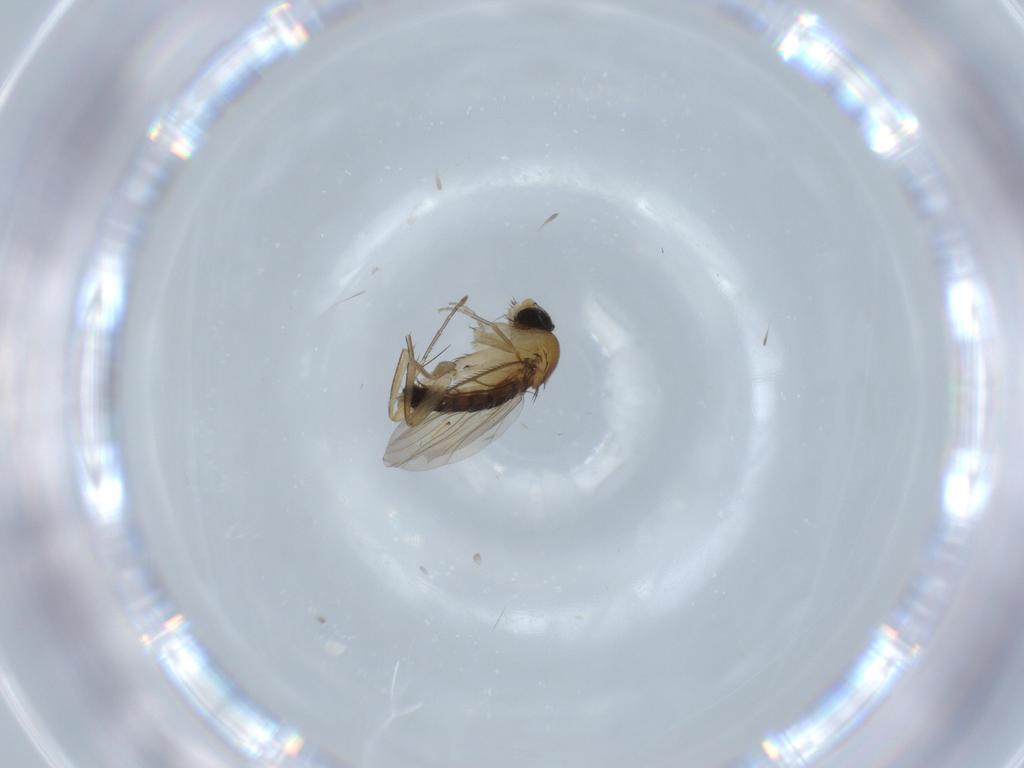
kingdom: Animalia
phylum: Arthropoda
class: Insecta
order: Diptera
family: Phoridae
